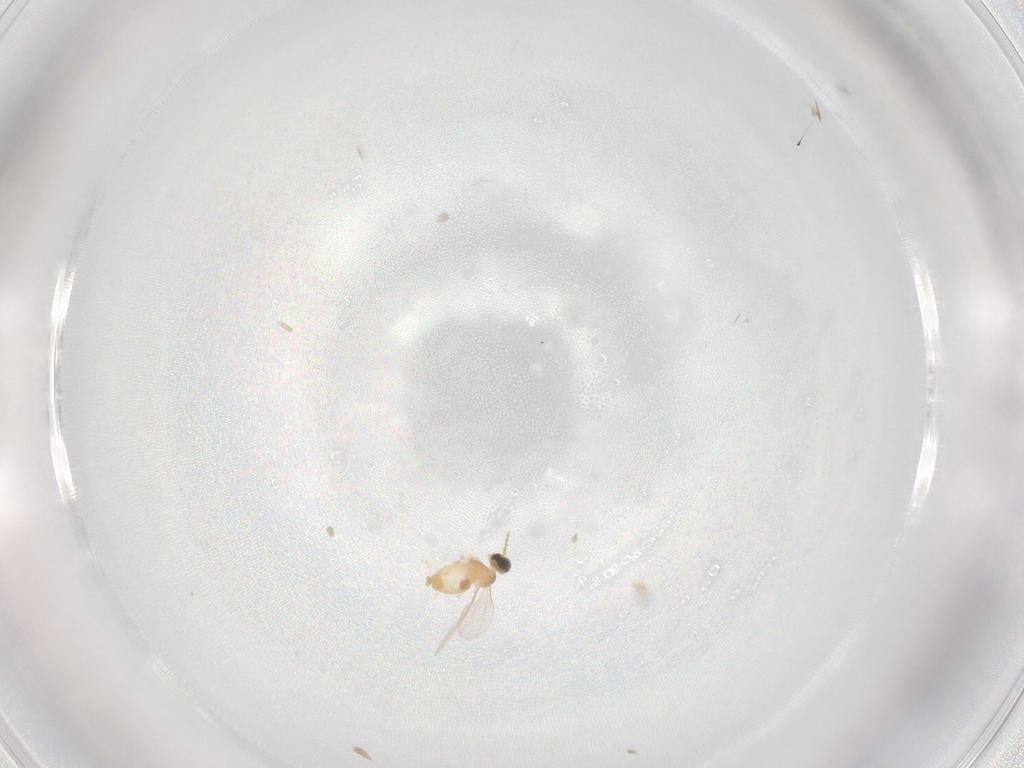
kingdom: Animalia
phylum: Arthropoda
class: Insecta
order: Diptera
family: Cecidomyiidae
